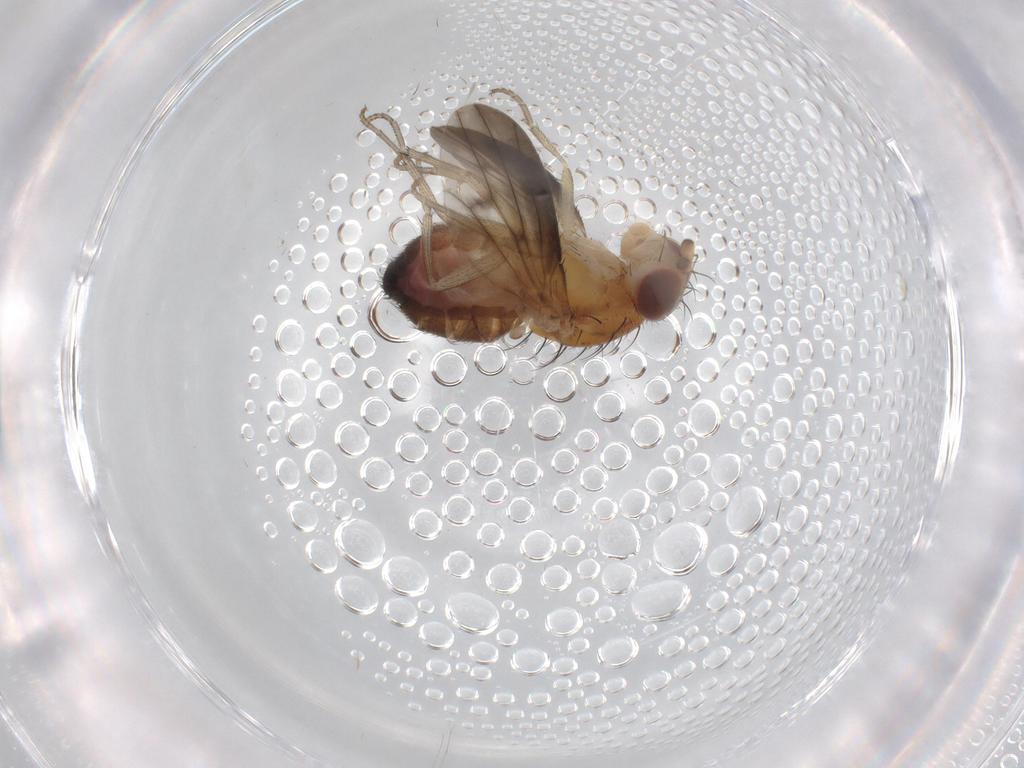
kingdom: Animalia
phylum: Arthropoda
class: Insecta
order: Diptera
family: Heleomyzidae
